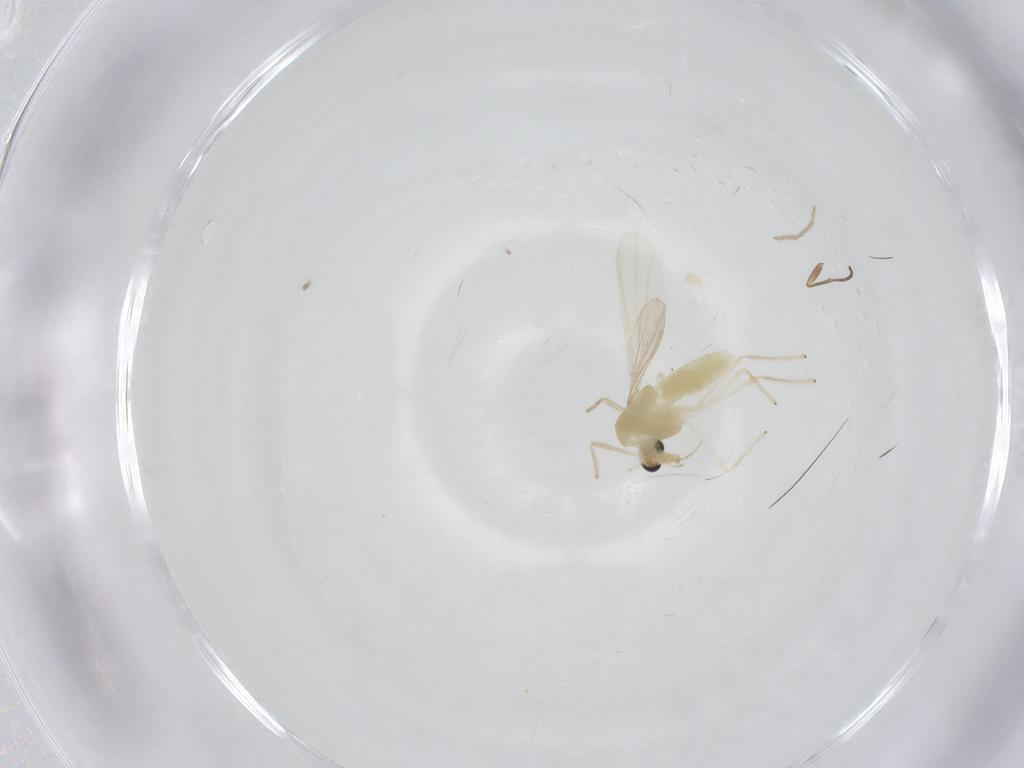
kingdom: Animalia
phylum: Arthropoda
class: Insecta
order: Diptera
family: Chironomidae
